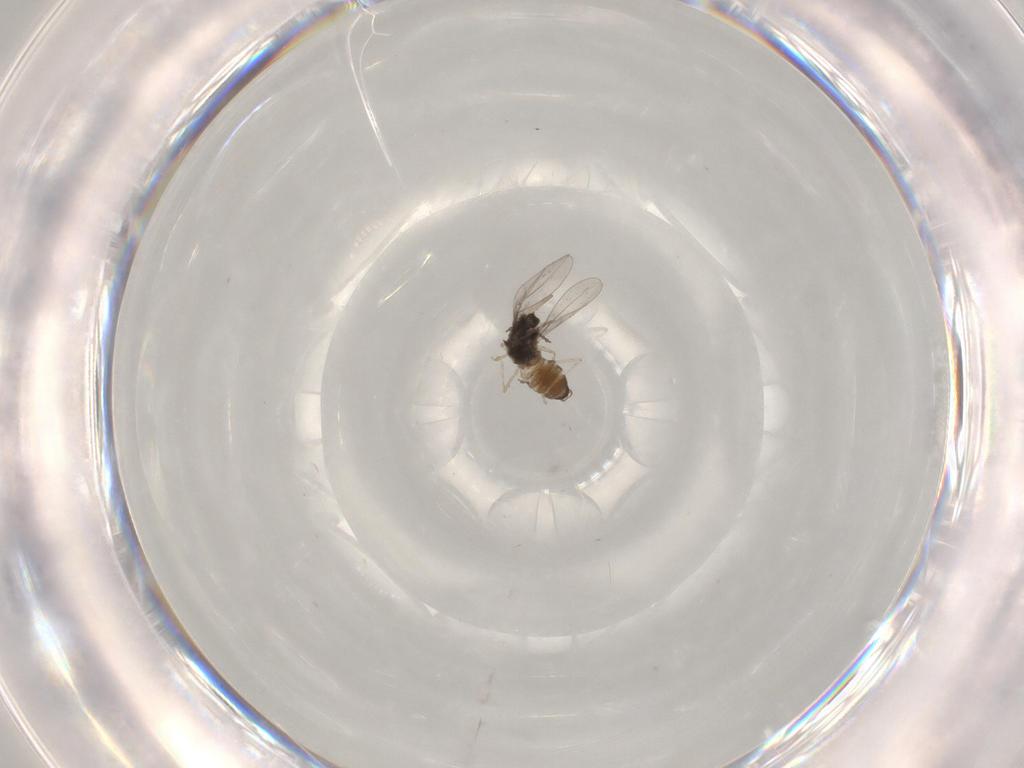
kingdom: Animalia
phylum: Arthropoda
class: Insecta
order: Diptera
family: Cecidomyiidae
